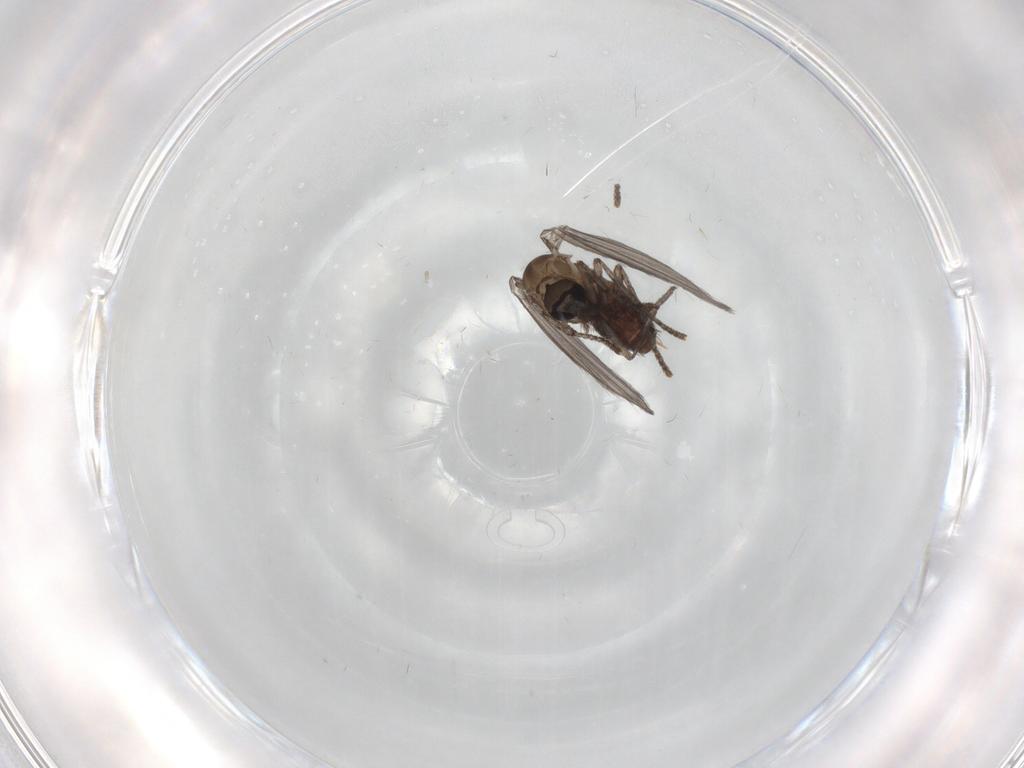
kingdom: Animalia
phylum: Arthropoda
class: Insecta
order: Diptera
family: Psychodidae
